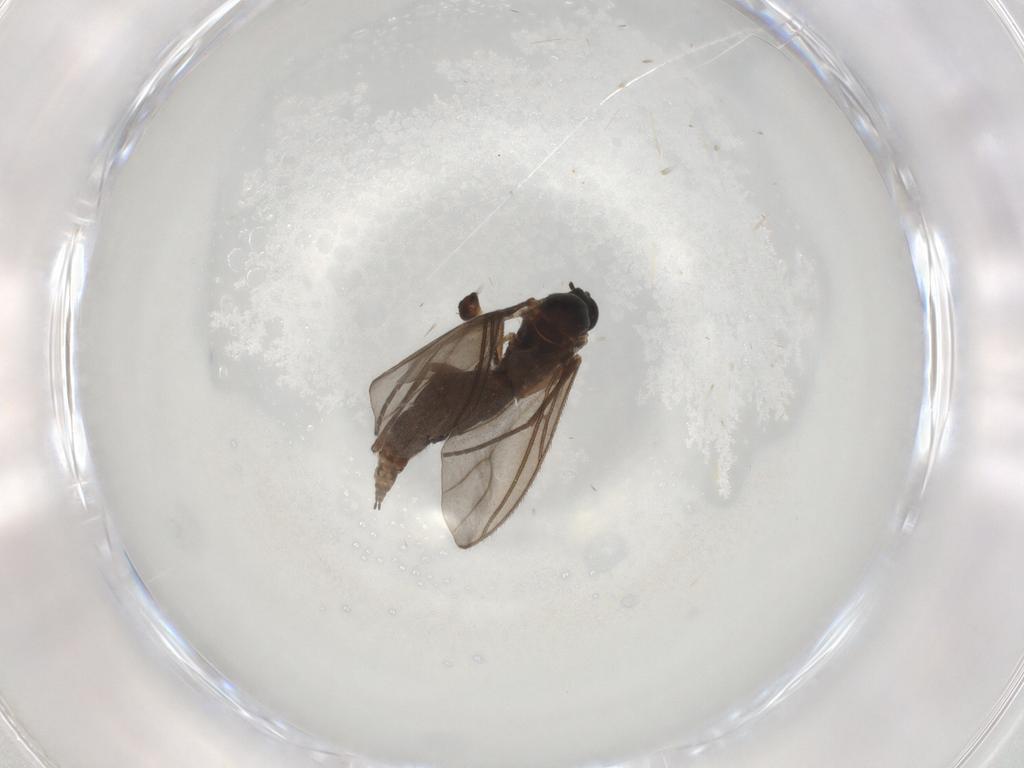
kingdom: Animalia
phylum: Arthropoda
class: Insecta
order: Diptera
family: Phoridae
